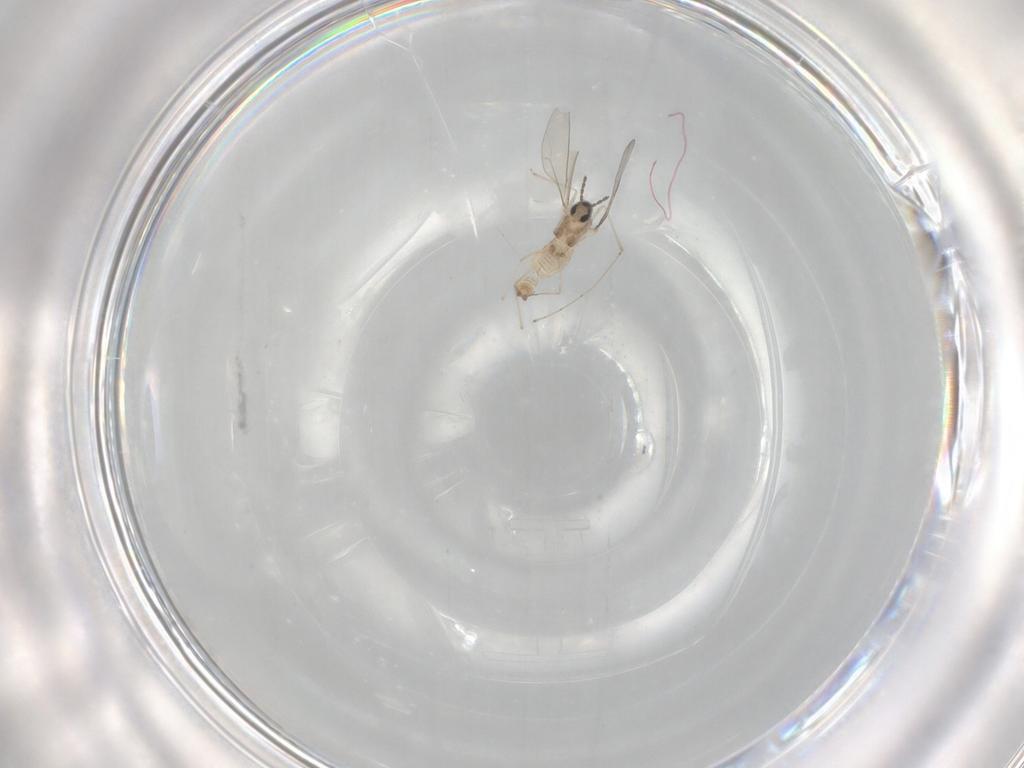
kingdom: Animalia
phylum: Arthropoda
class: Insecta
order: Diptera
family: Cecidomyiidae
